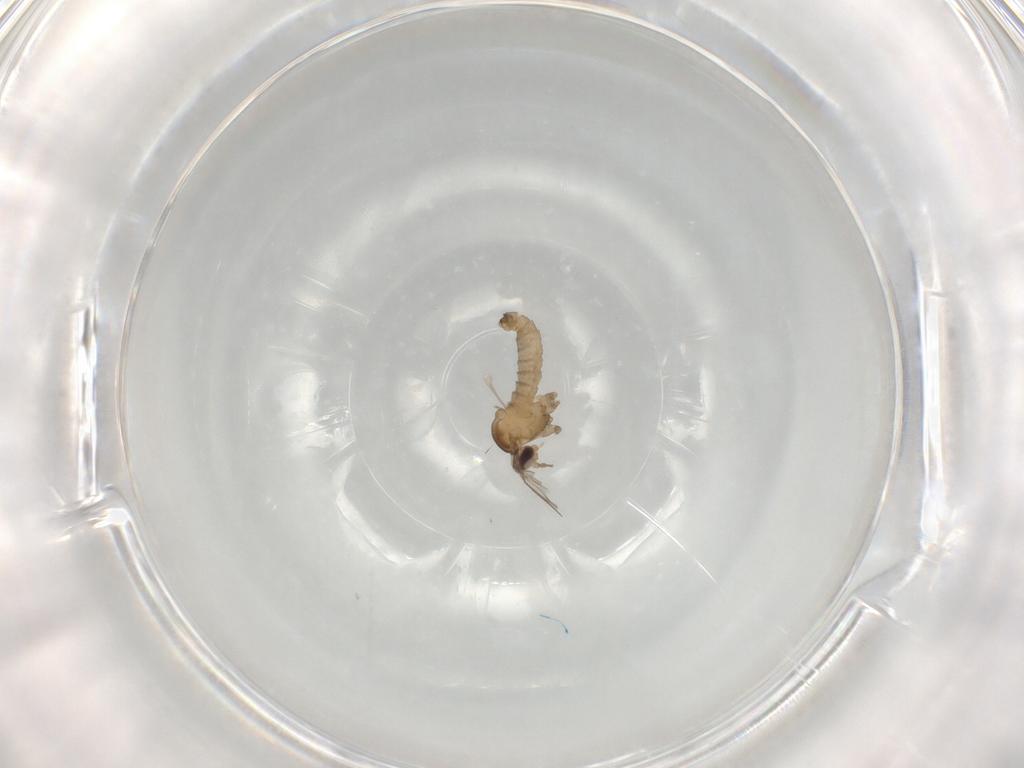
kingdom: Animalia
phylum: Arthropoda
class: Insecta
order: Diptera
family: Cecidomyiidae
